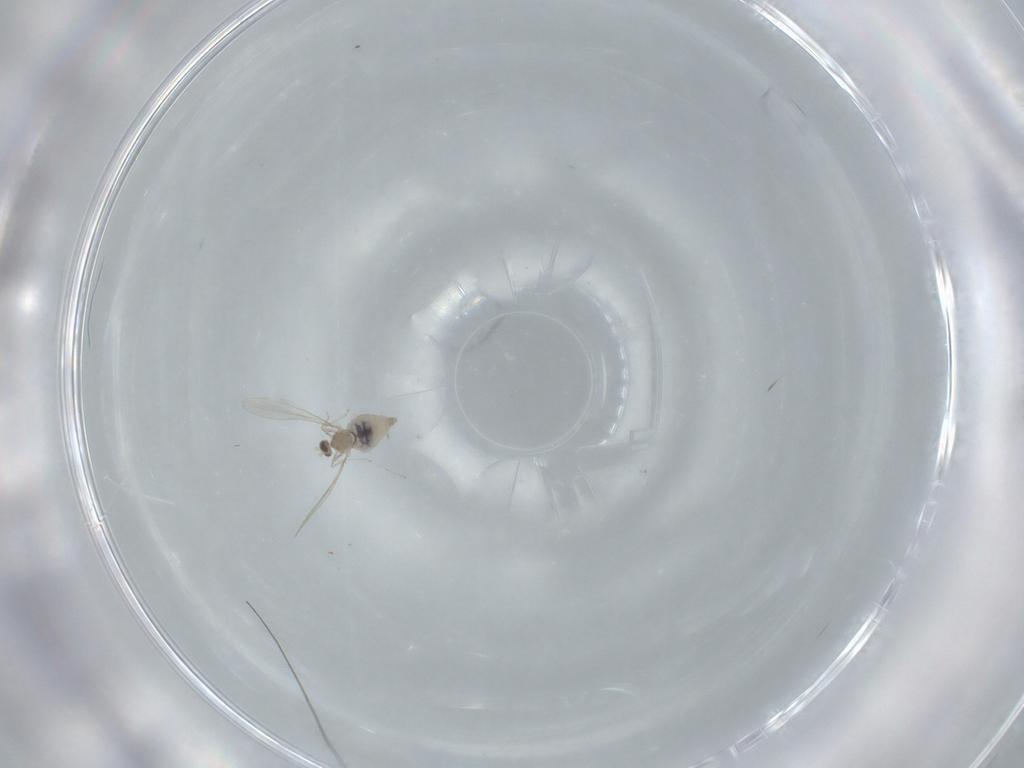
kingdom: Animalia
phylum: Arthropoda
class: Insecta
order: Diptera
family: Cecidomyiidae
